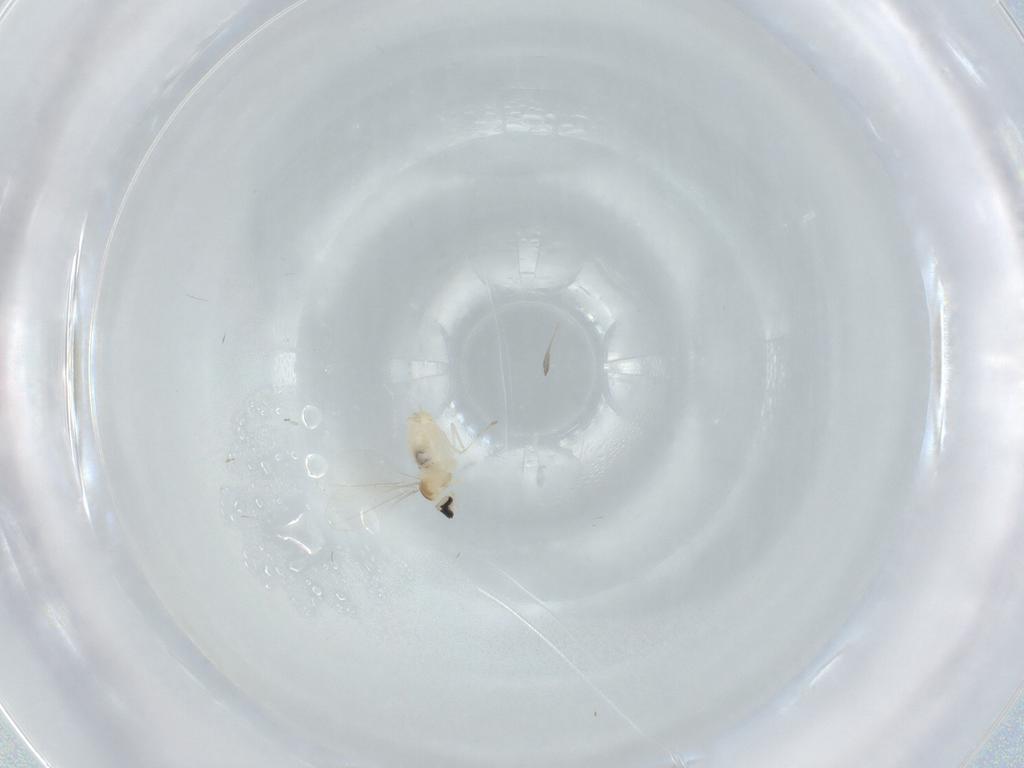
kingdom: Animalia
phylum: Arthropoda
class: Insecta
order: Diptera
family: Cecidomyiidae
